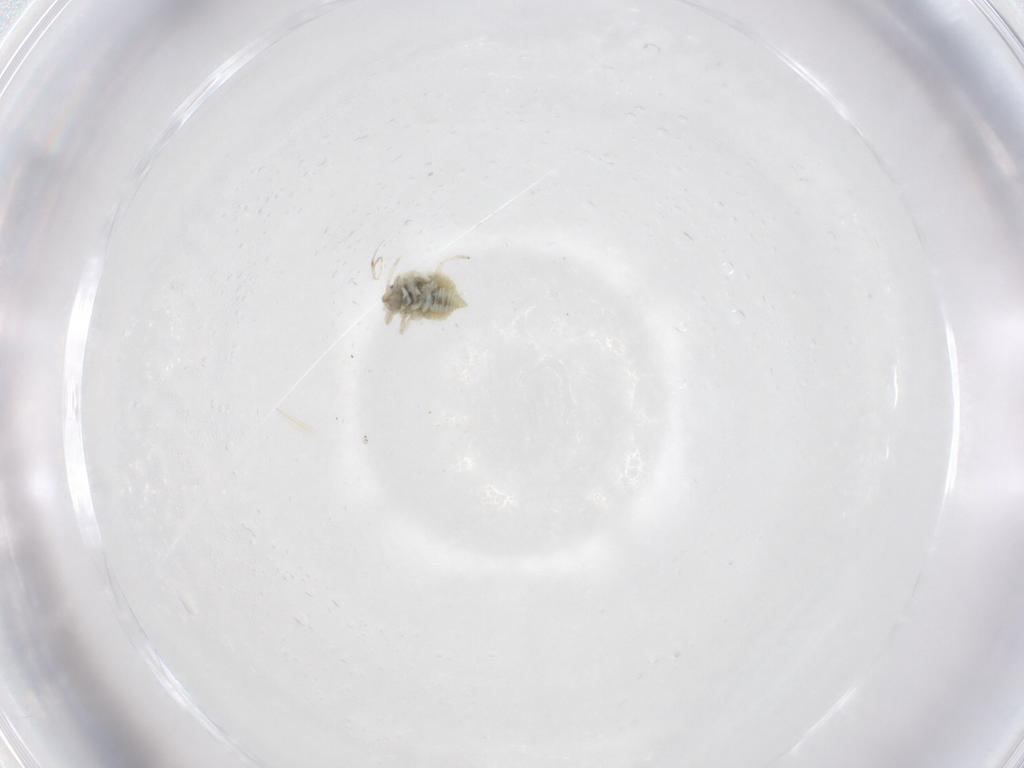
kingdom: Animalia
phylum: Arthropoda
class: Insecta
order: Neuroptera
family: Coniopterygidae
